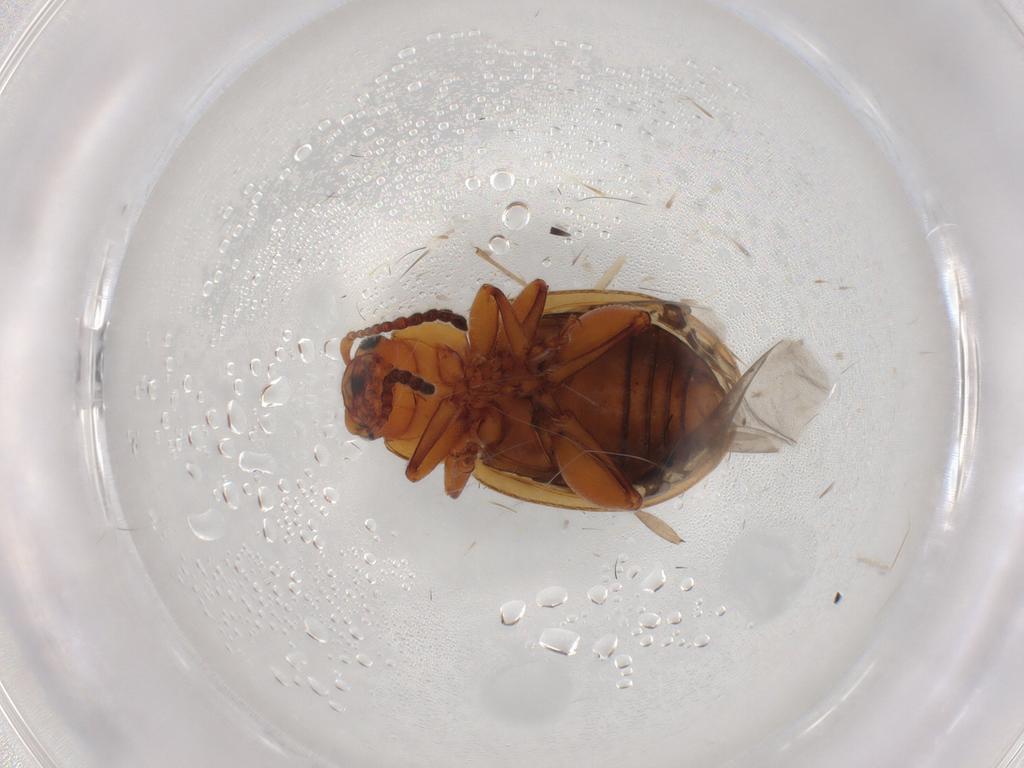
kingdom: Animalia
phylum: Arthropoda
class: Insecta
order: Coleoptera
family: Chrysomelidae
